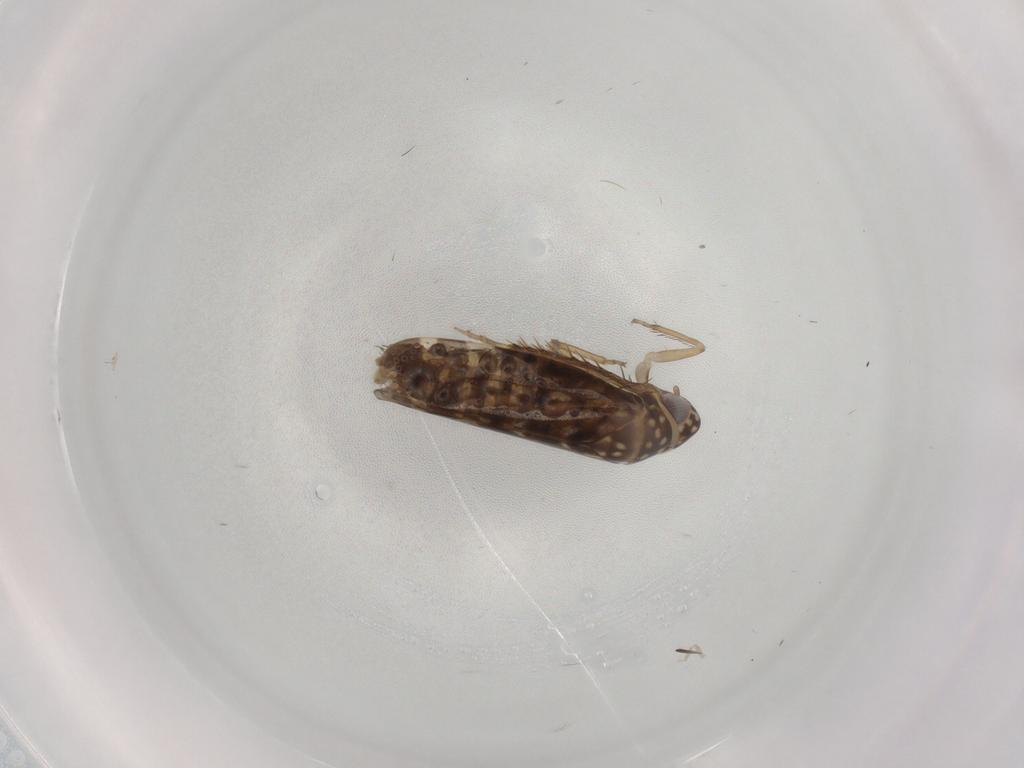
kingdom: Animalia
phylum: Arthropoda
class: Insecta
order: Hemiptera
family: Cicadellidae
